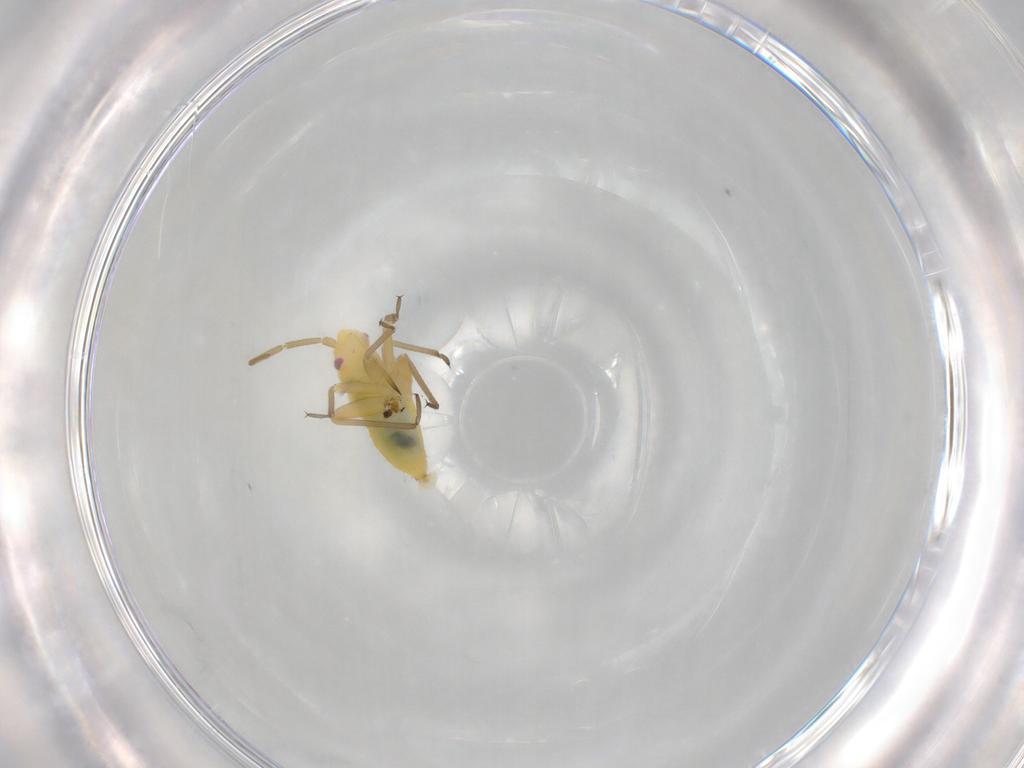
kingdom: Animalia
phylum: Arthropoda
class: Insecta
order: Hemiptera
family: Miridae
